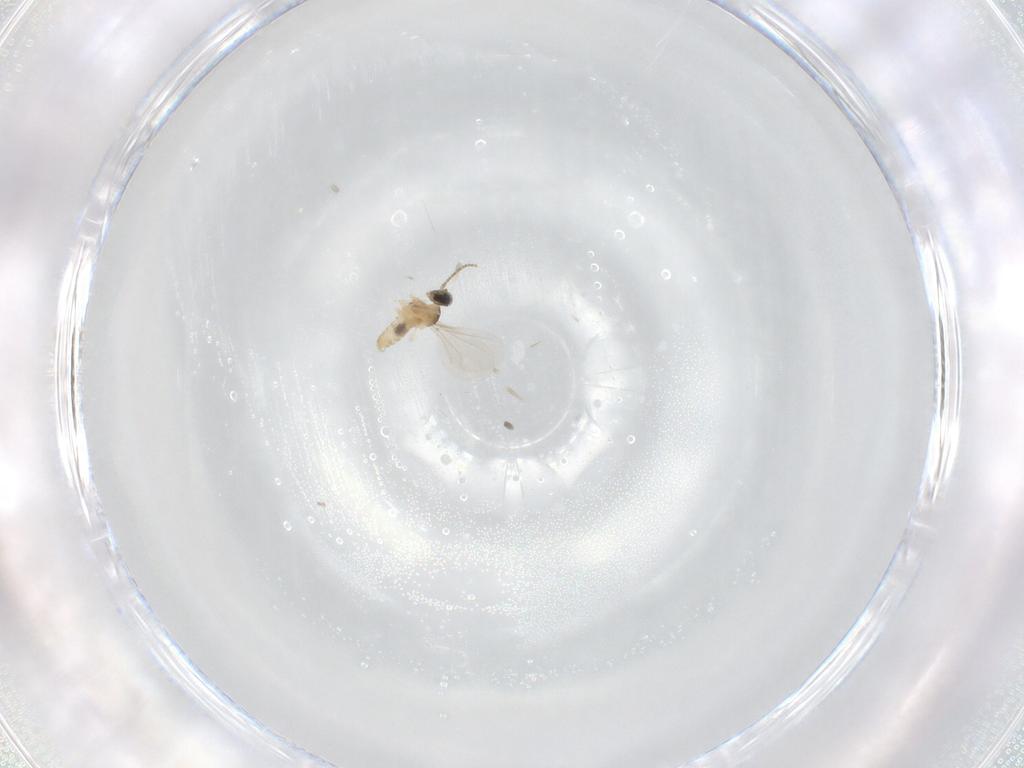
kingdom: Animalia
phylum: Arthropoda
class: Insecta
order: Diptera
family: Cecidomyiidae
